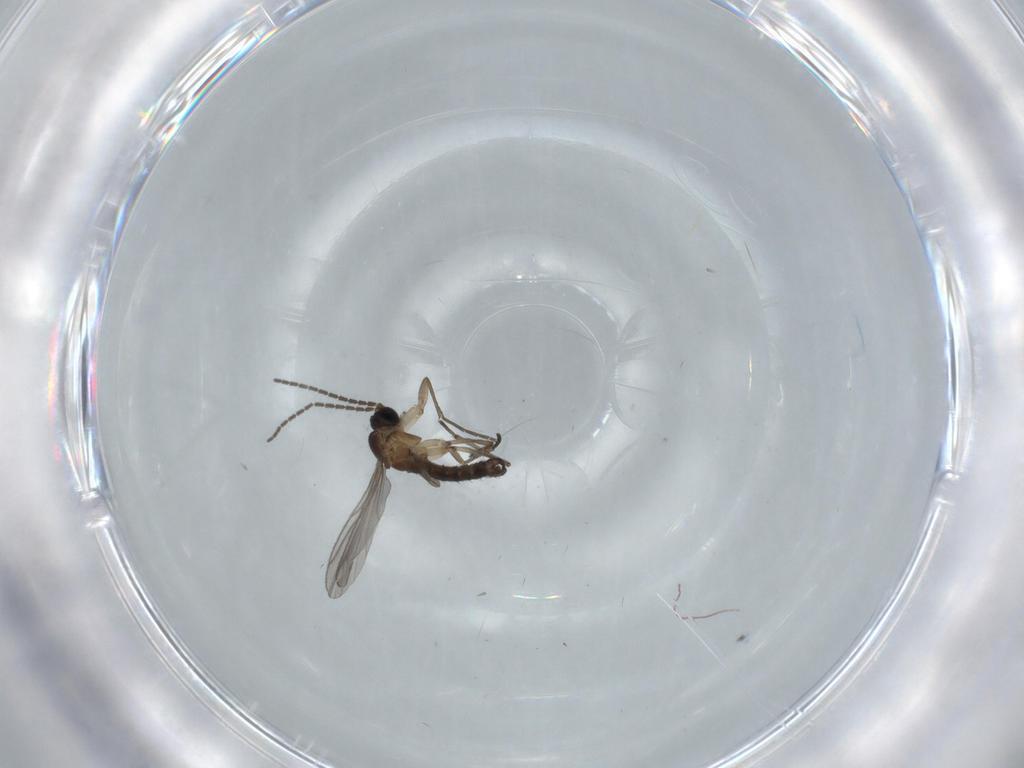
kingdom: Animalia
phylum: Arthropoda
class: Insecta
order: Diptera
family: Sciaridae
